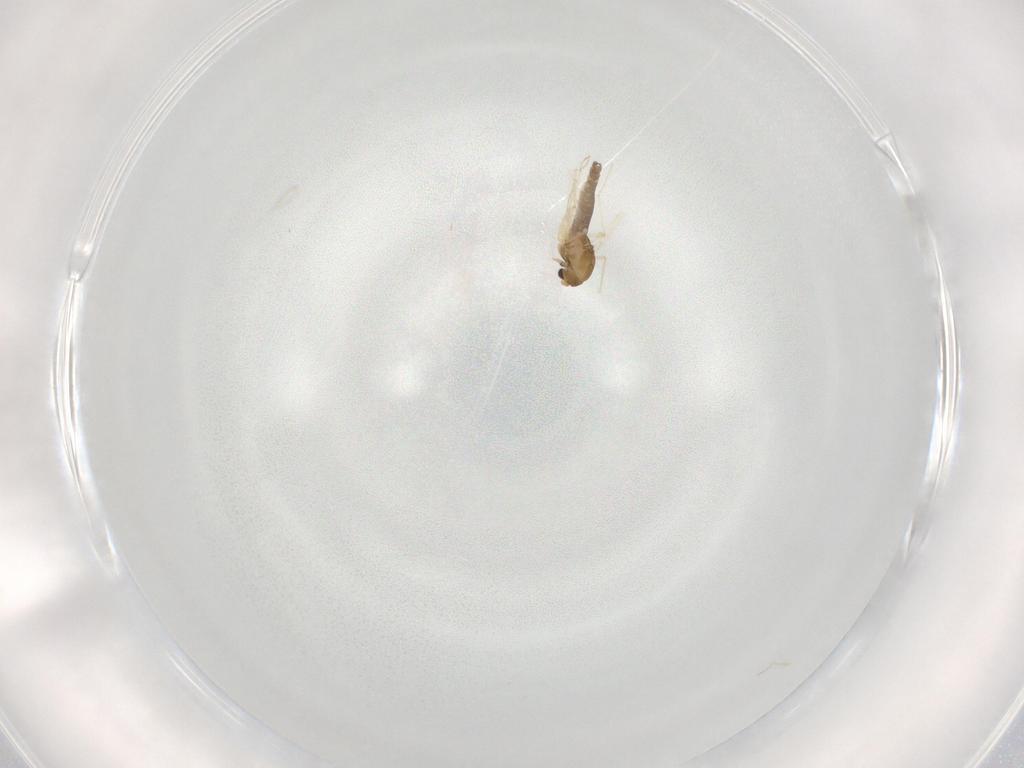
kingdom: Animalia
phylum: Arthropoda
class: Insecta
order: Diptera
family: Chironomidae
